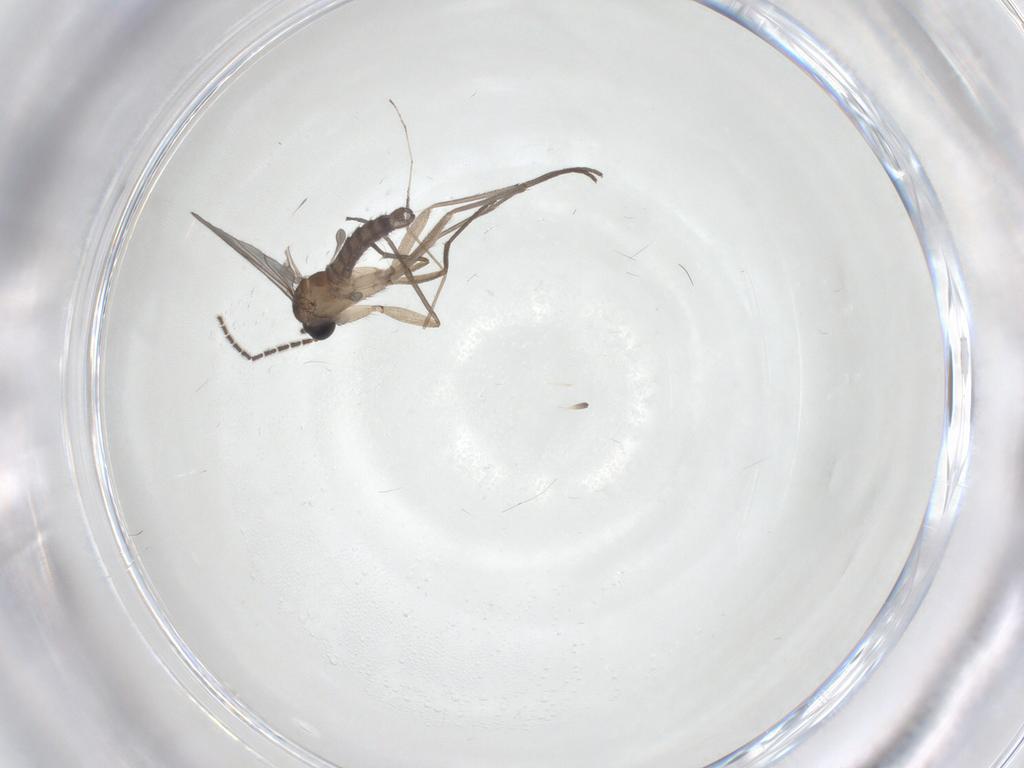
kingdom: Animalia
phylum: Arthropoda
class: Insecta
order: Diptera
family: Sciaridae
